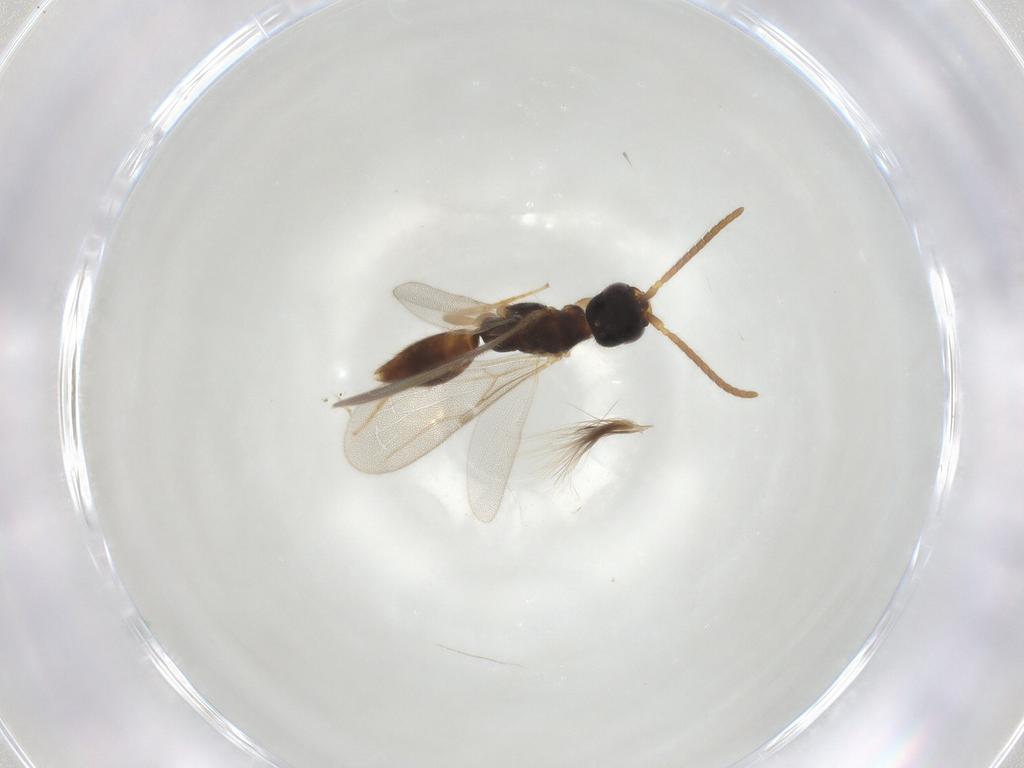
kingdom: Animalia
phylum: Arthropoda
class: Insecta
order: Hymenoptera
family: Bethylidae
